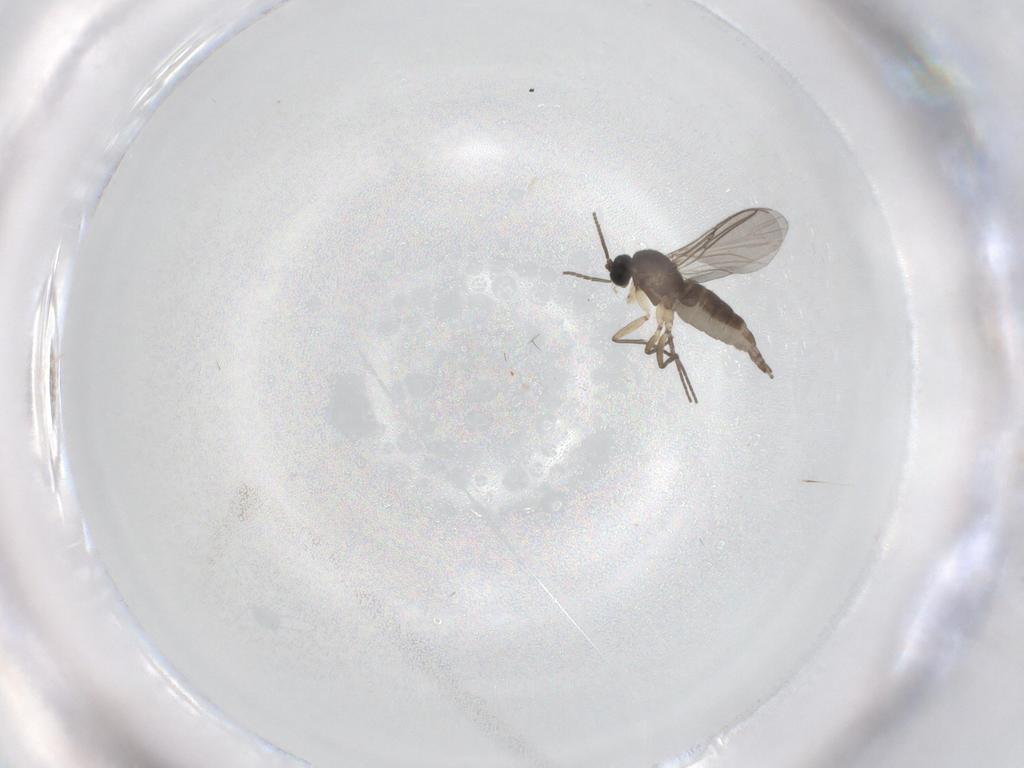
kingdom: Animalia
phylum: Arthropoda
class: Insecta
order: Diptera
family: Sciaridae
